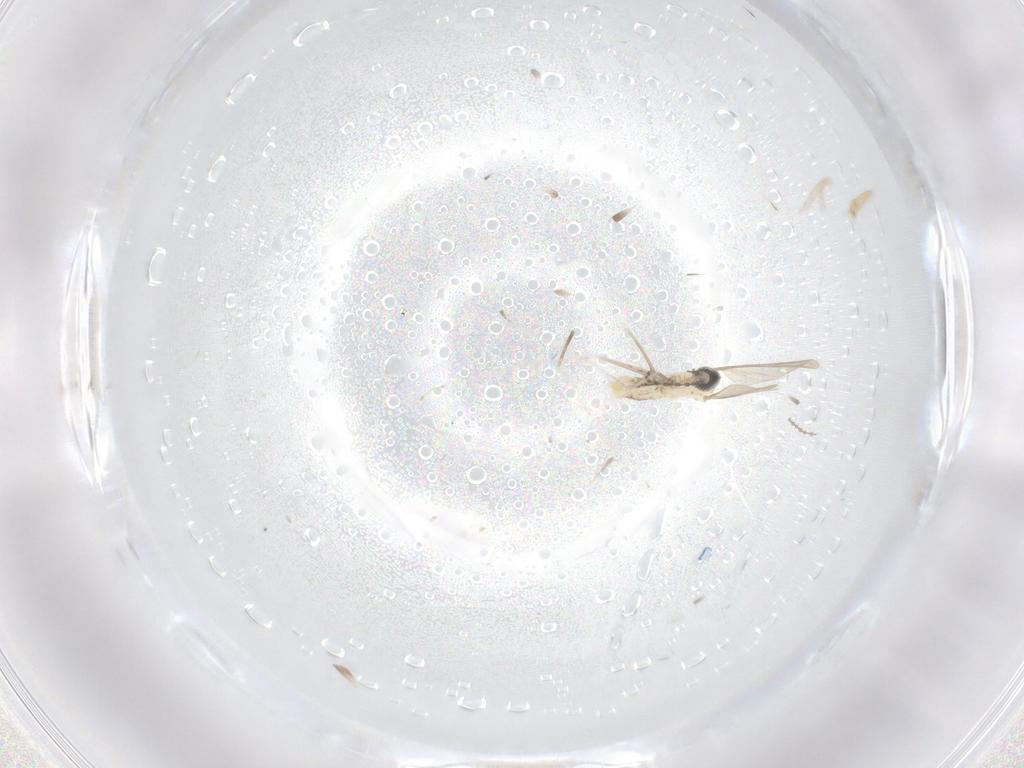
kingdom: Animalia
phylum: Arthropoda
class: Insecta
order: Diptera
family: Cecidomyiidae
